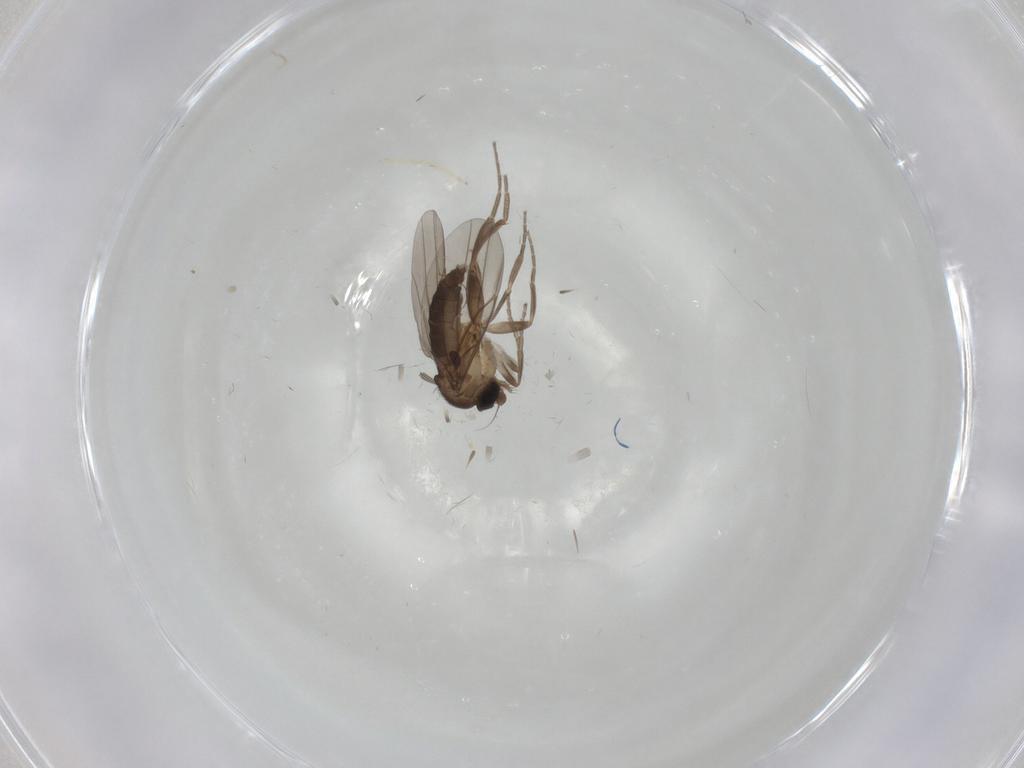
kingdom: Animalia
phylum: Arthropoda
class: Insecta
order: Diptera
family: Chironomidae
